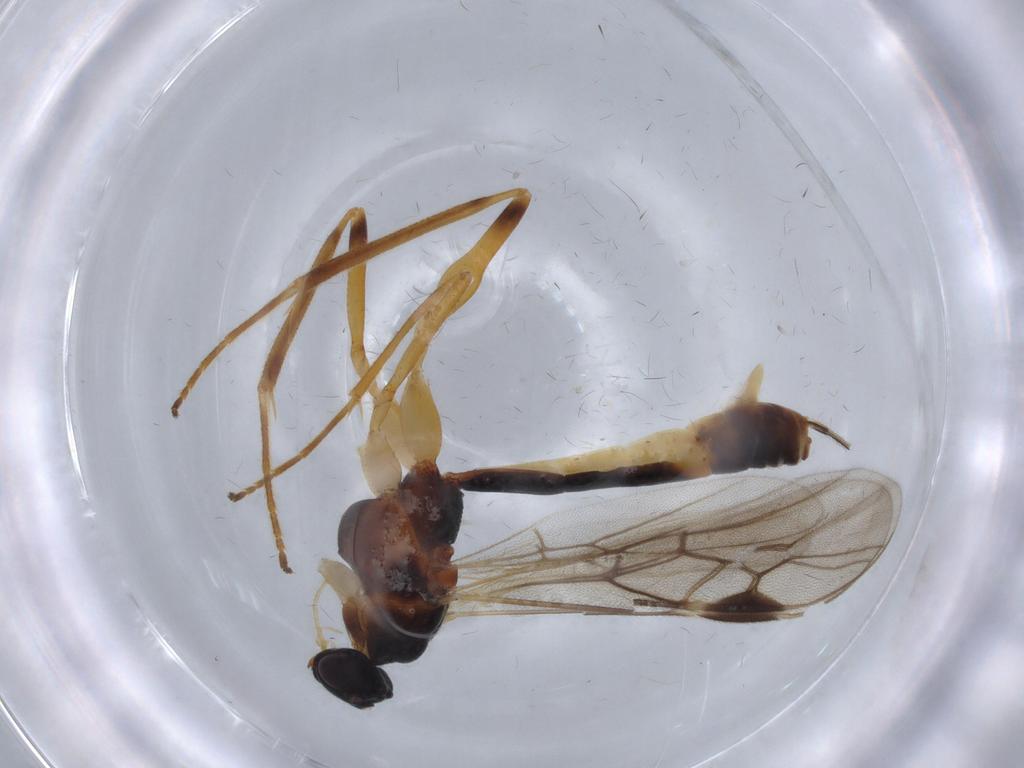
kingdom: Animalia
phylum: Arthropoda
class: Insecta
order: Hymenoptera
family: Figitidae
